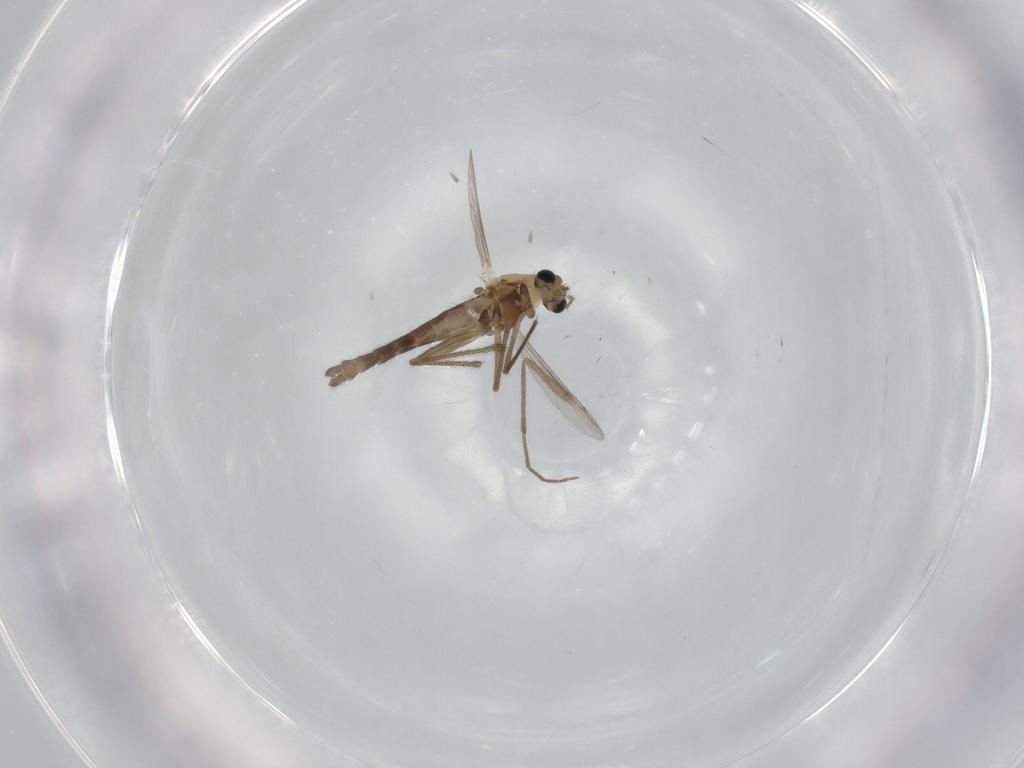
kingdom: Animalia
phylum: Arthropoda
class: Insecta
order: Diptera
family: Chironomidae
